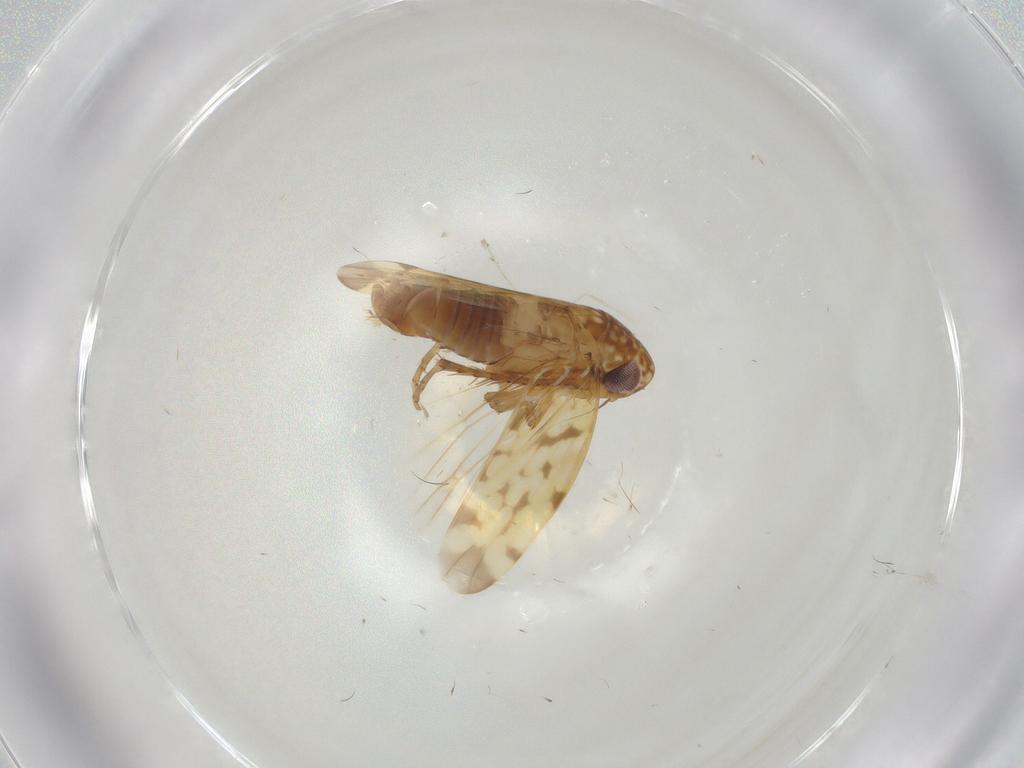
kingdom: Animalia
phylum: Arthropoda
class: Insecta
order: Hemiptera
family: Cicadellidae
